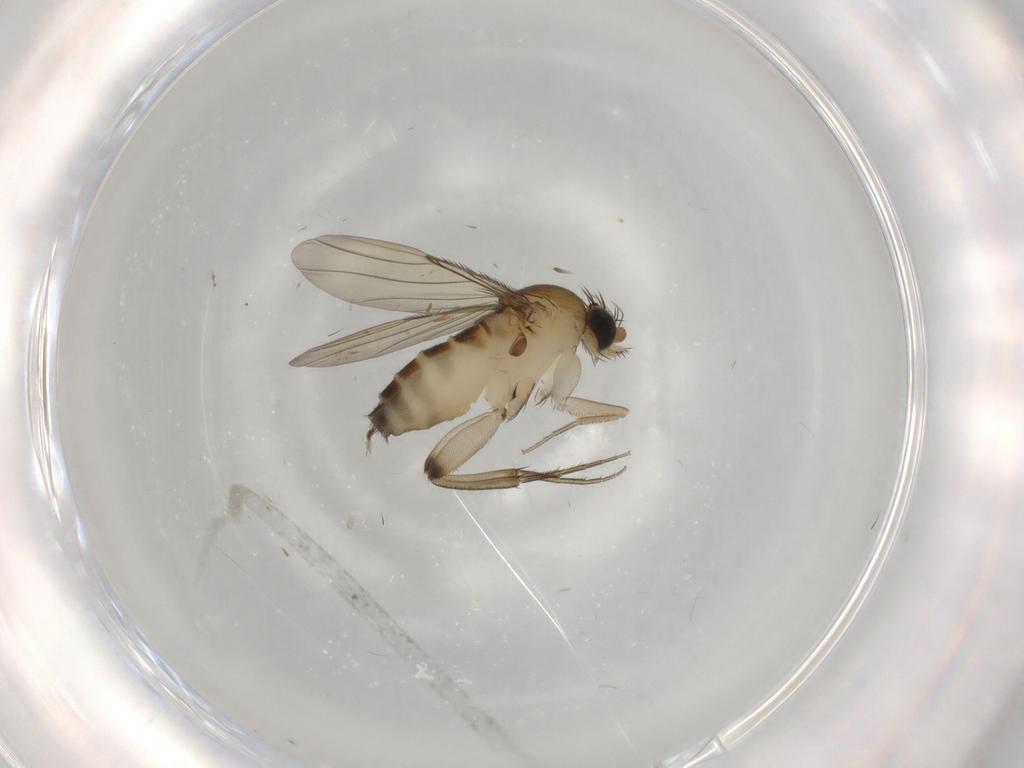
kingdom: Animalia
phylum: Arthropoda
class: Insecta
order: Diptera
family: Phoridae
